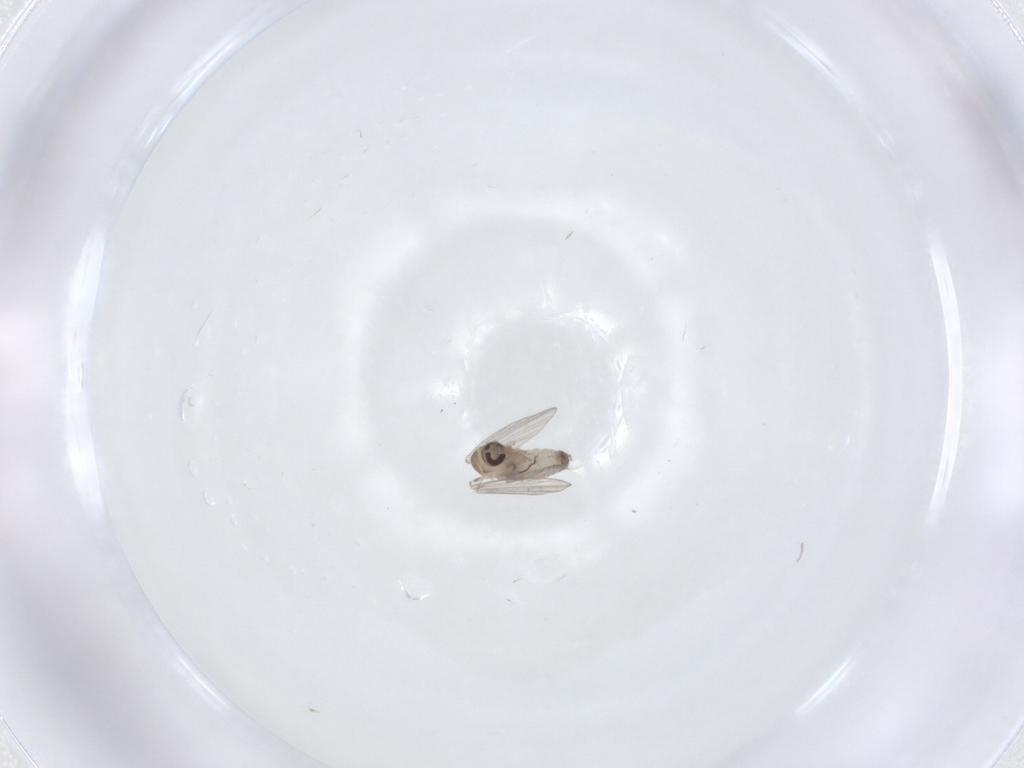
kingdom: Animalia
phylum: Arthropoda
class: Insecta
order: Diptera
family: Psychodidae
